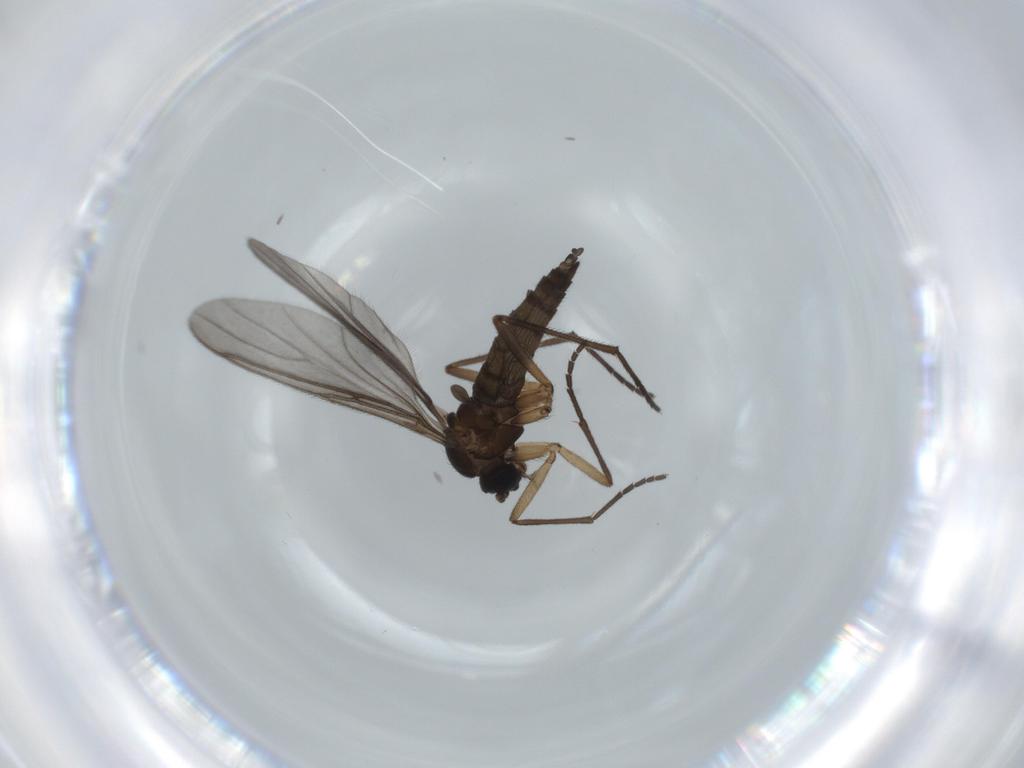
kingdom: Animalia
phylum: Arthropoda
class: Insecta
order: Diptera
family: Sciaridae
